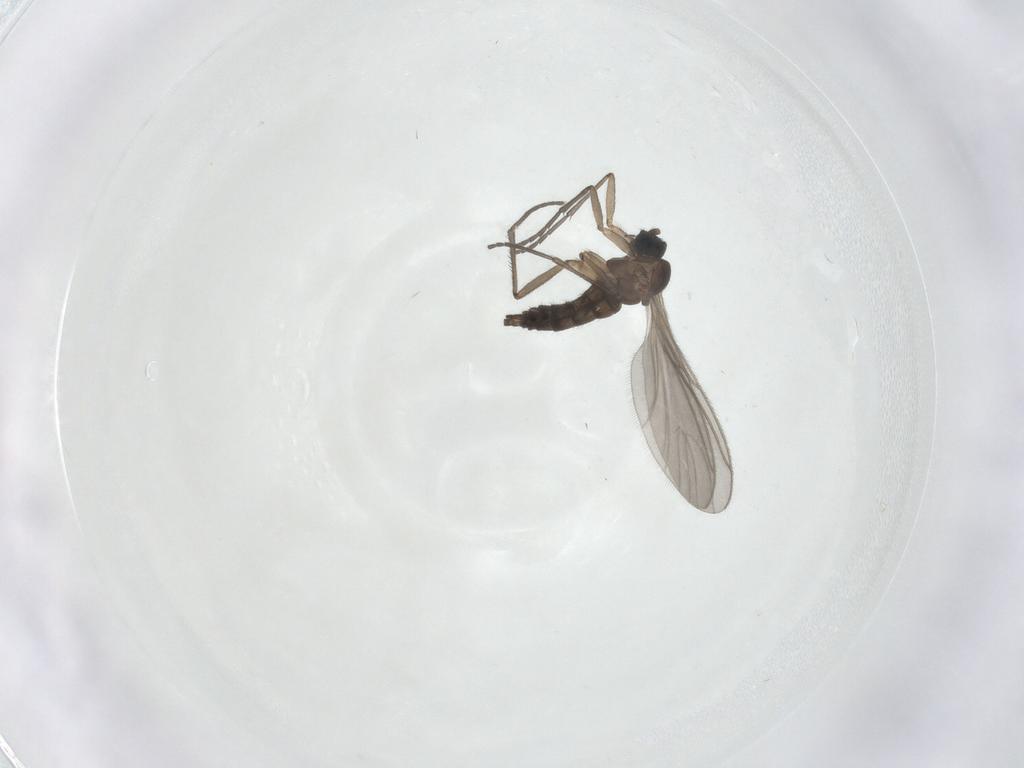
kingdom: Animalia
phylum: Arthropoda
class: Insecta
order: Diptera
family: Sciaridae
